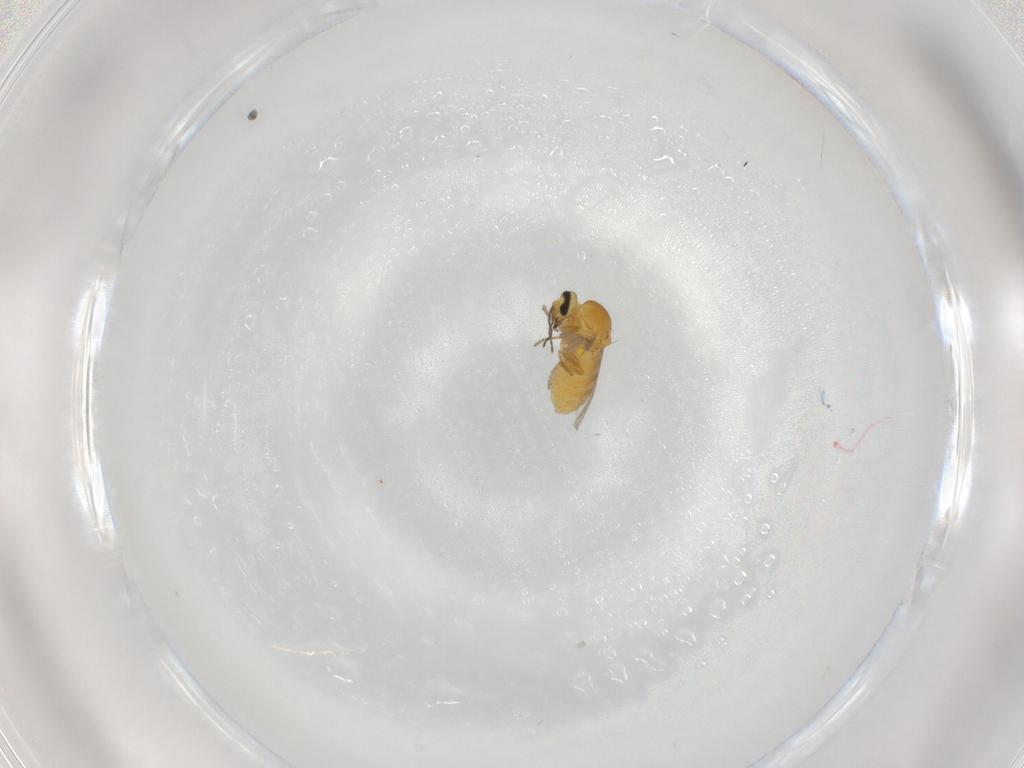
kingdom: Animalia
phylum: Arthropoda
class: Insecta
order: Diptera
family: Ceratopogonidae
